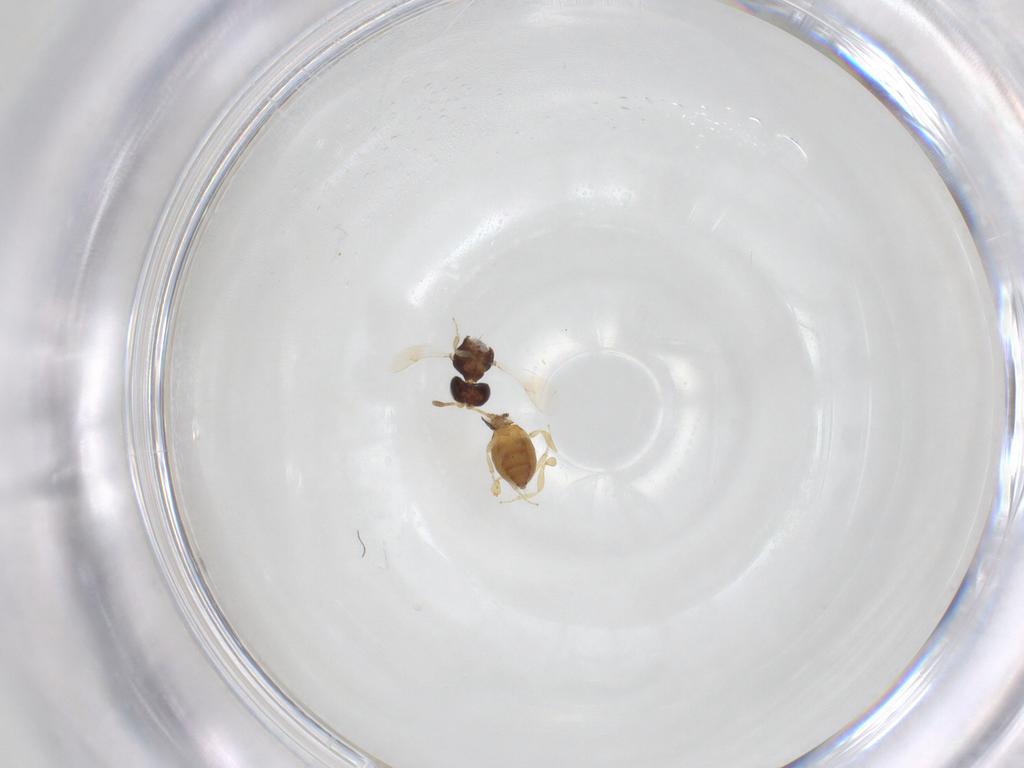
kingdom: Animalia
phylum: Arthropoda
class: Insecta
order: Hymenoptera
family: Scelionidae
